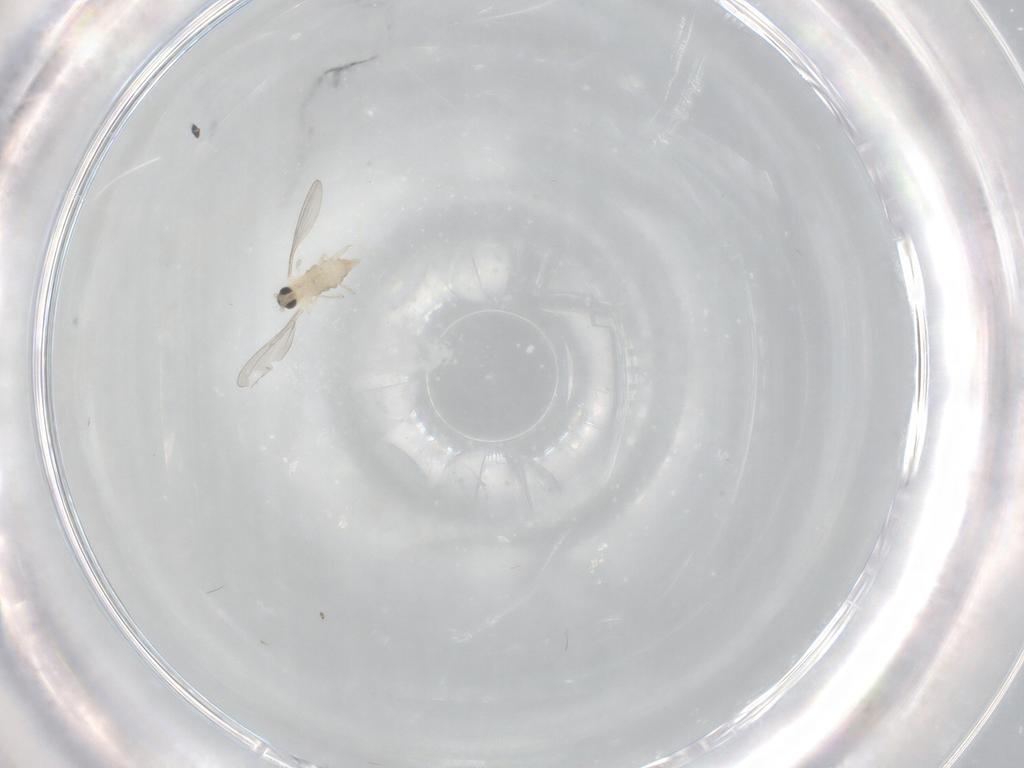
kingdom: Animalia
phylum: Arthropoda
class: Insecta
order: Diptera
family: Cecidomyiidae
